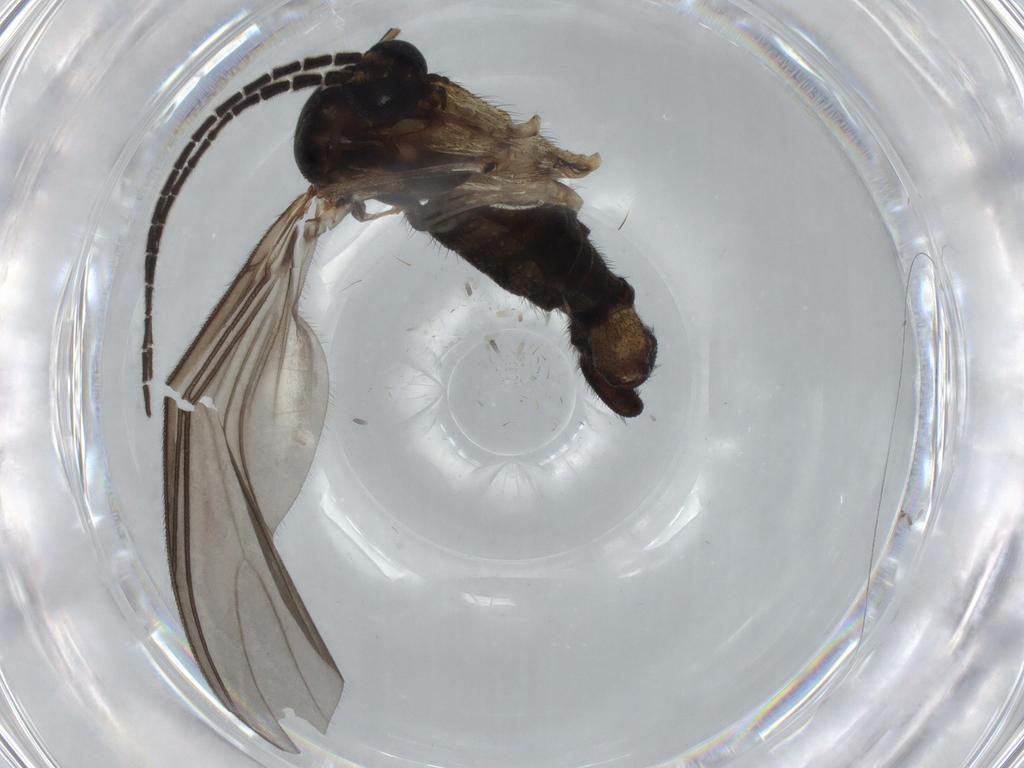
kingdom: Animalia
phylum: Arthropoda
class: Insecta
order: Diptera
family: Sciaridae
